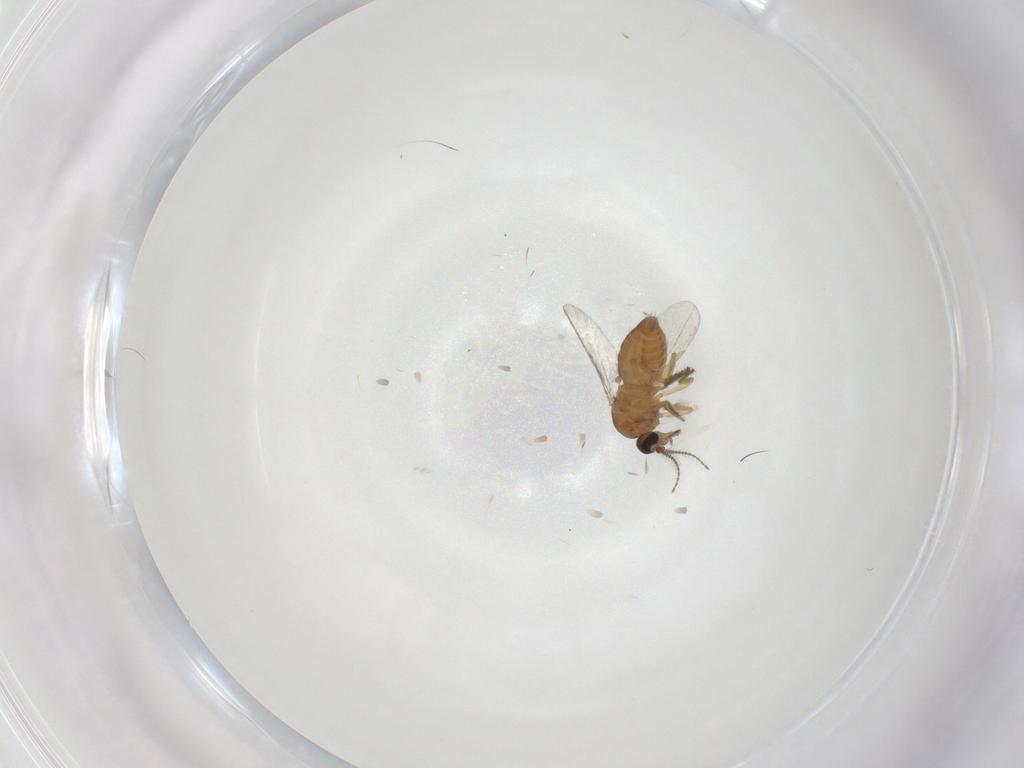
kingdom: Animalia
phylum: Arthropoda
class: Insecta
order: Diptera
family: Ceratopogonidae
